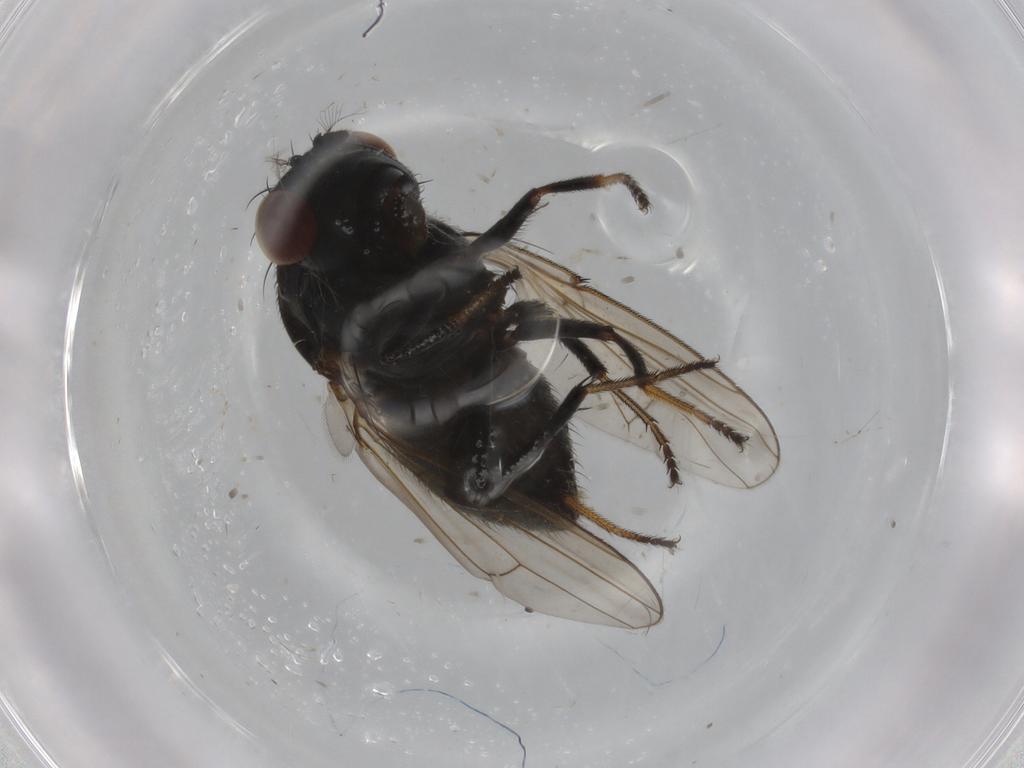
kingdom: Animalia
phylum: Arthropoda
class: Insecta
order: Diptera
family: Ephydridae
